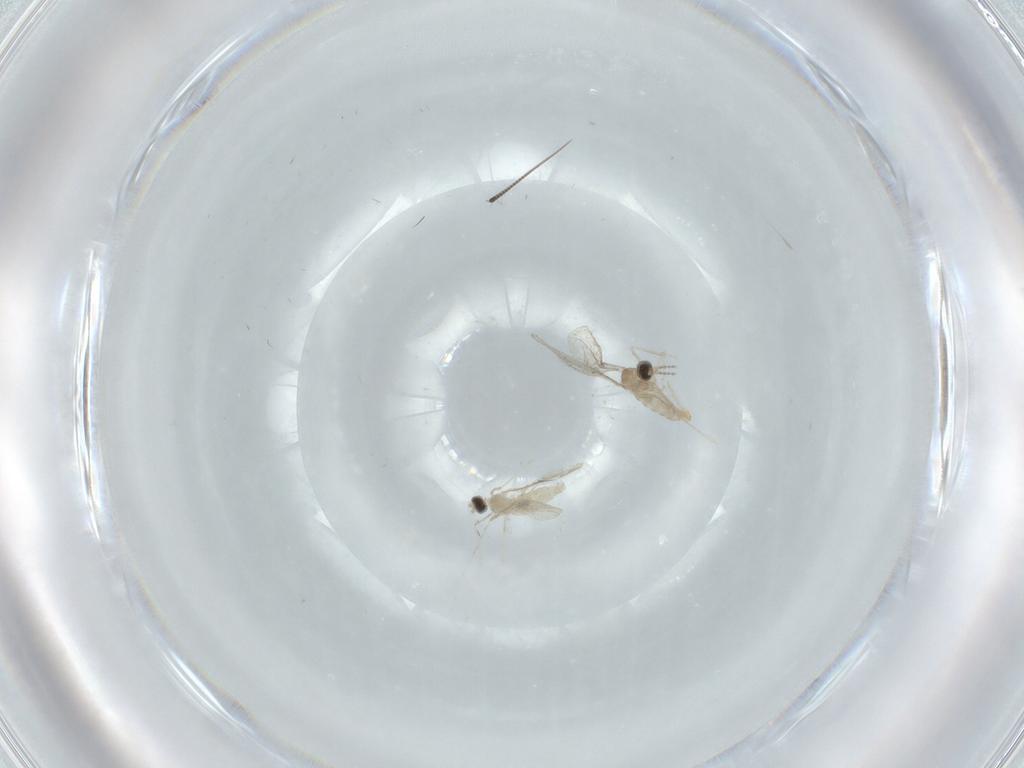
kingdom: Animalia
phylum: Arthropoda
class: Insecta
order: Diptera
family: Cecidomyiidae
